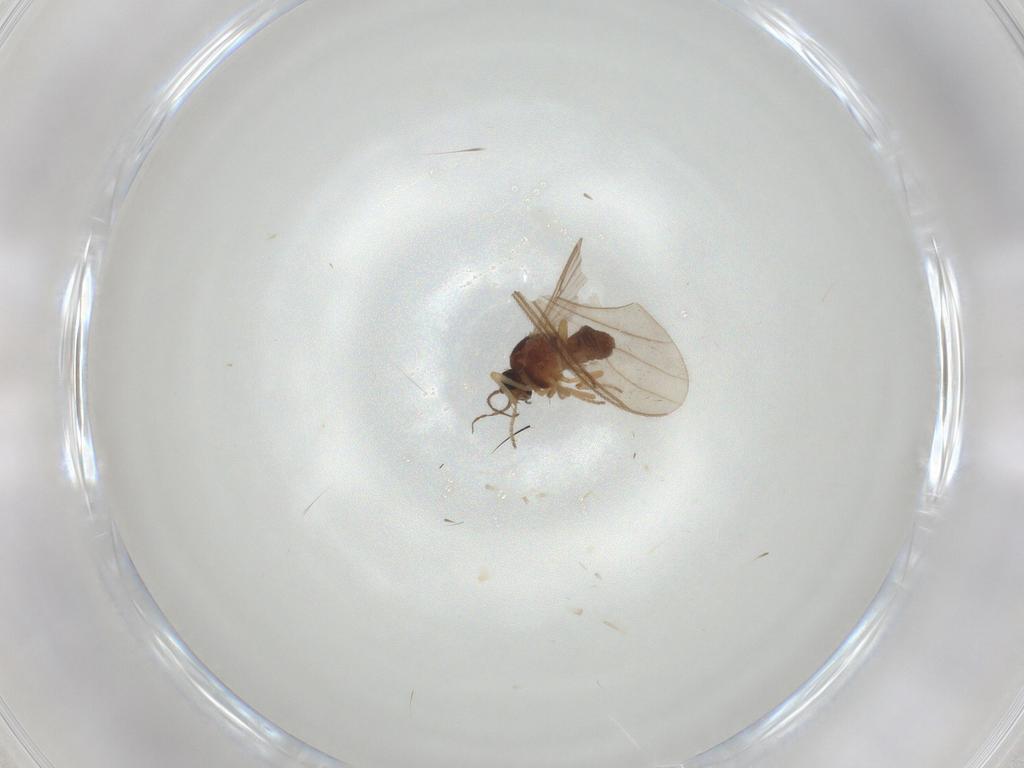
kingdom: Animalia
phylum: Arthropoda
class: Insecta
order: Diptera
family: Ceratopogonidae
